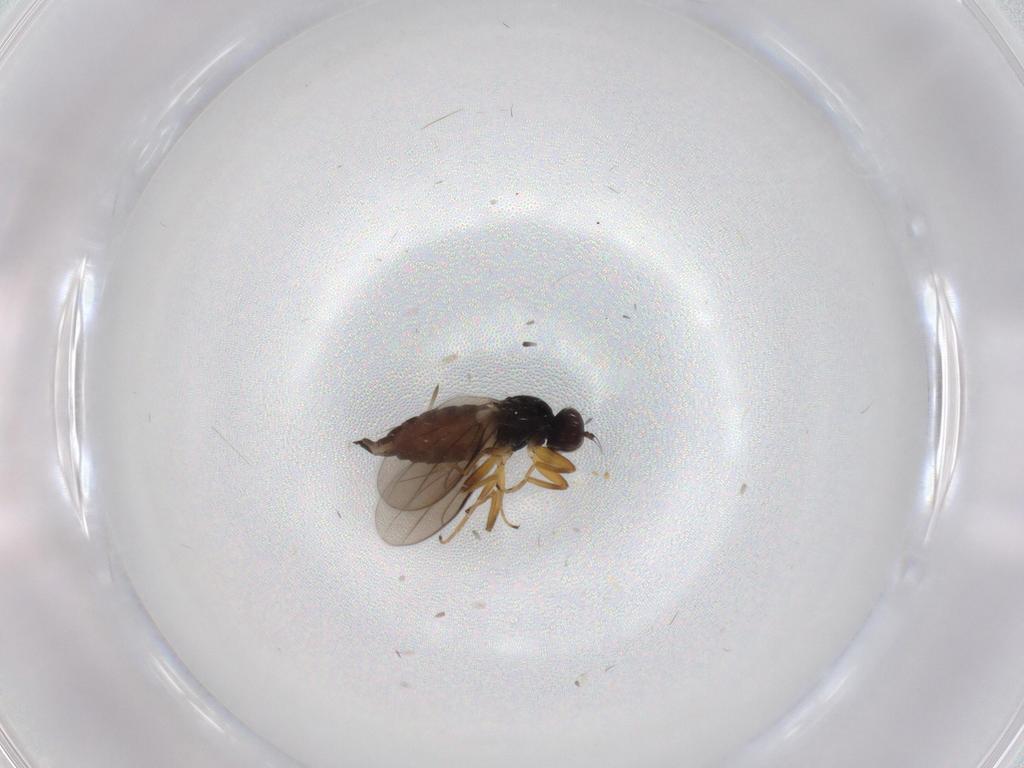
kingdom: Animalia
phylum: Arthropoda
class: Insecta
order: Diptera
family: Hybotidae
